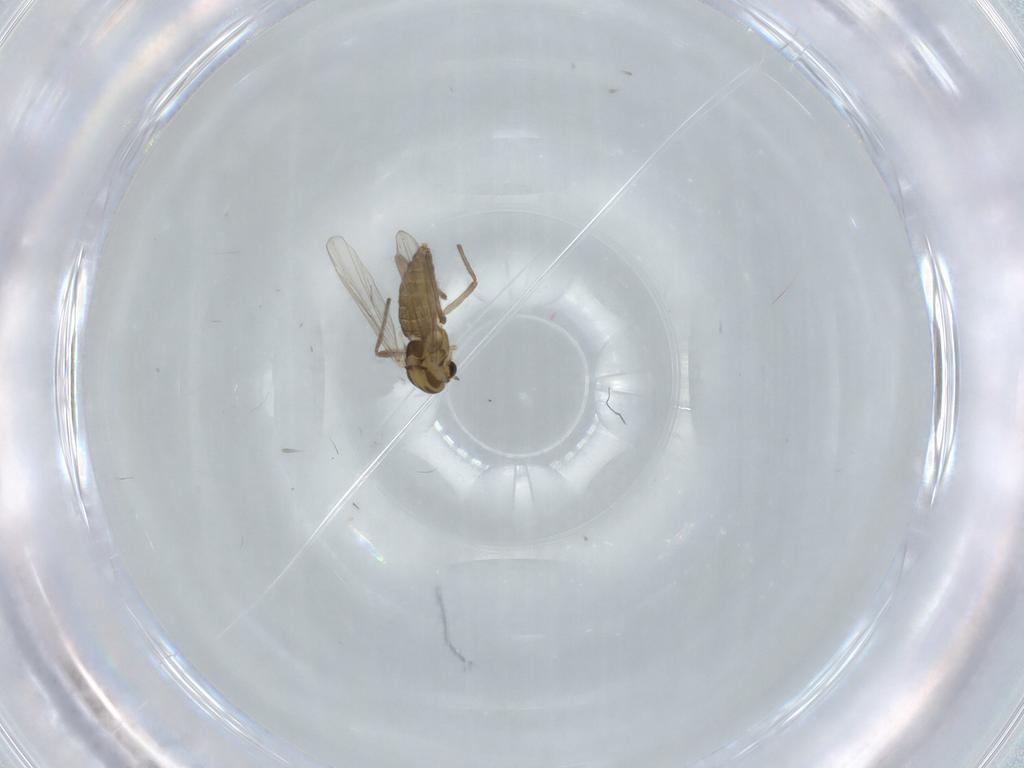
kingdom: Animalia
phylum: Arthropoda
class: Insecta
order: Diptera
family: Chironomidae
